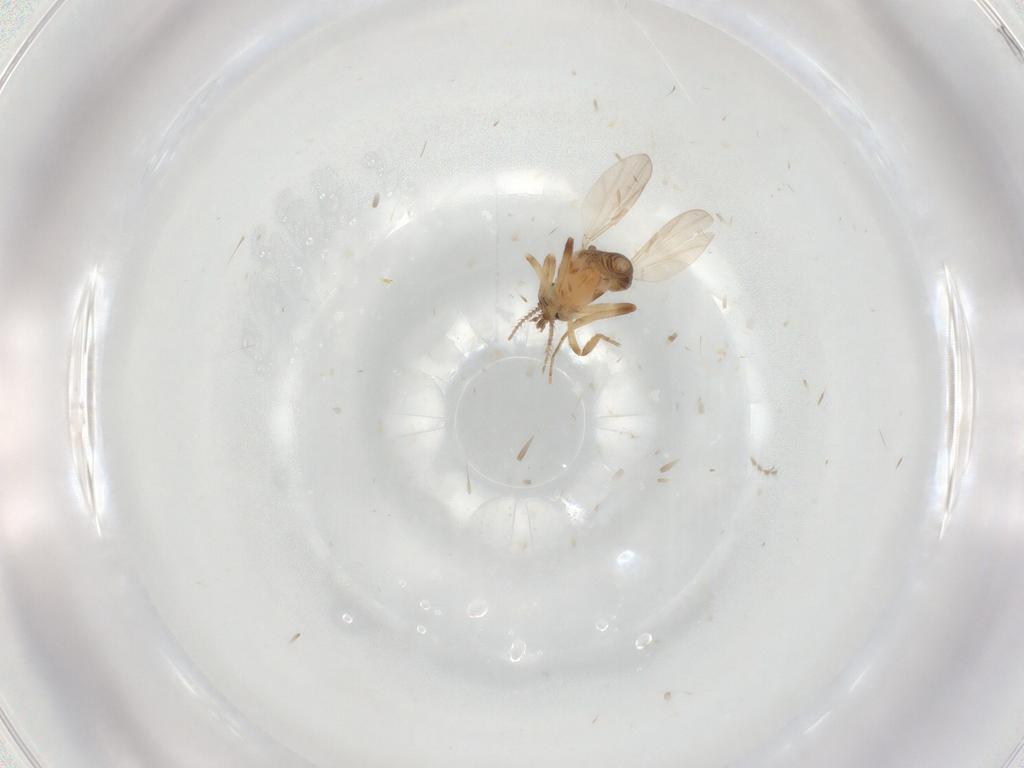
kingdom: Animalia
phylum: Arthropoda
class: Insecta
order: Diptera
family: Ceratopogonidae
